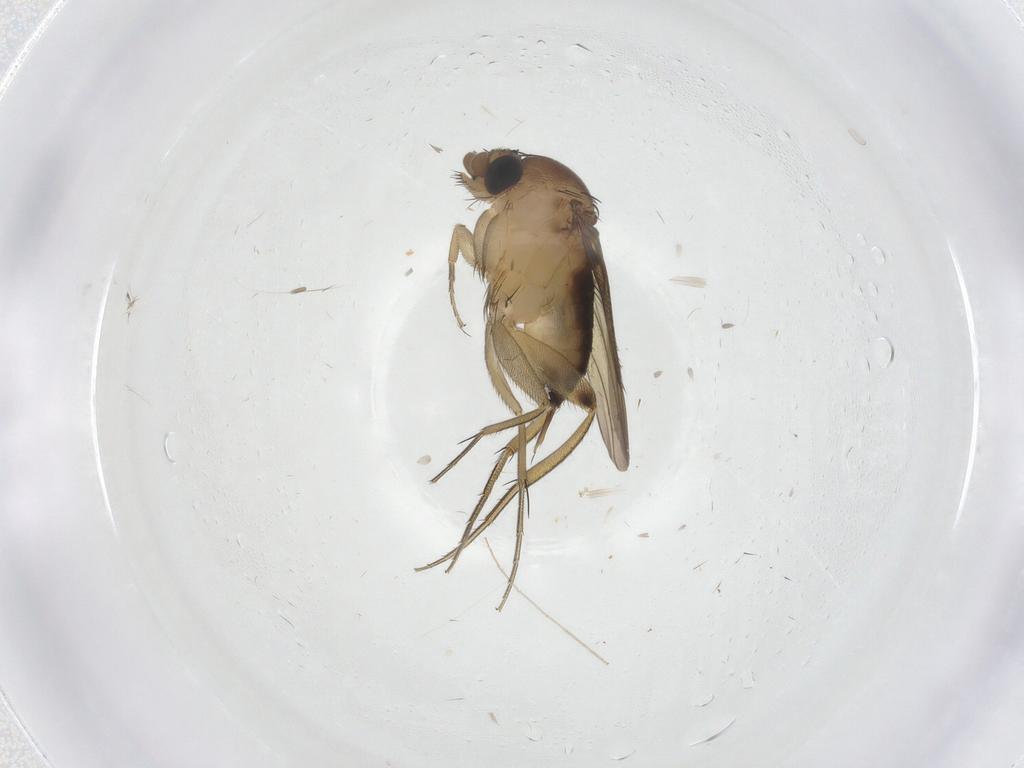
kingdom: Animalia
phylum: Arthropoda
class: Insecta
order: Diptera
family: Phoridae
